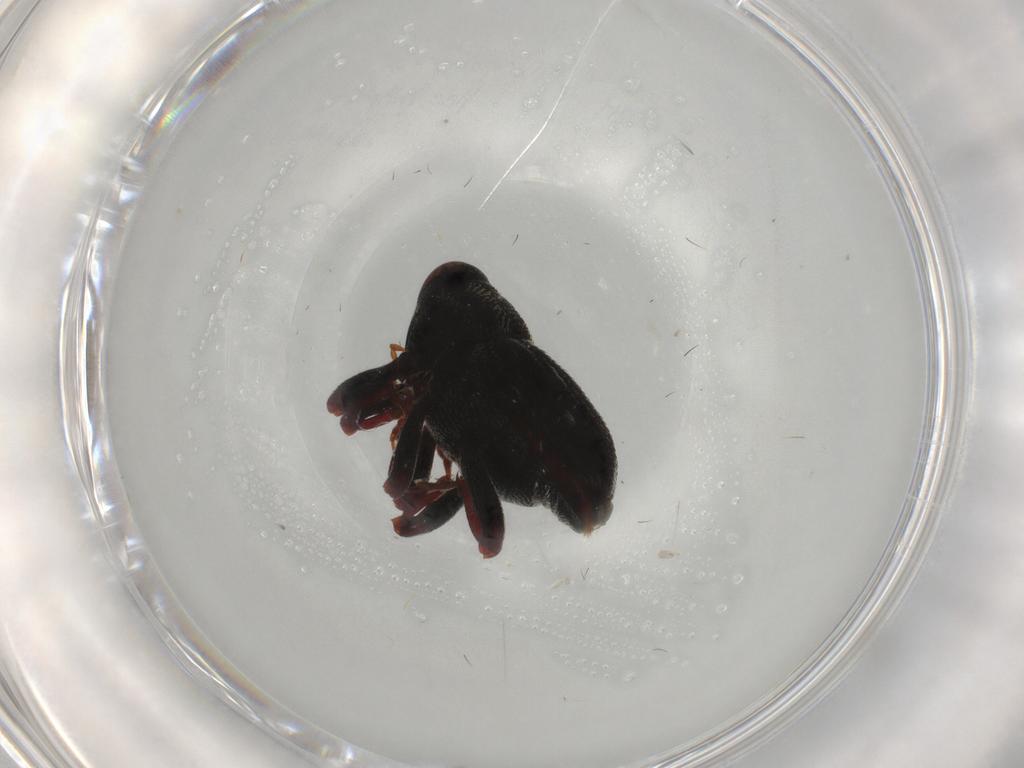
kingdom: Animalia
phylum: Arthropoda
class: Insecta
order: Coleoptera
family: Curculionidae
